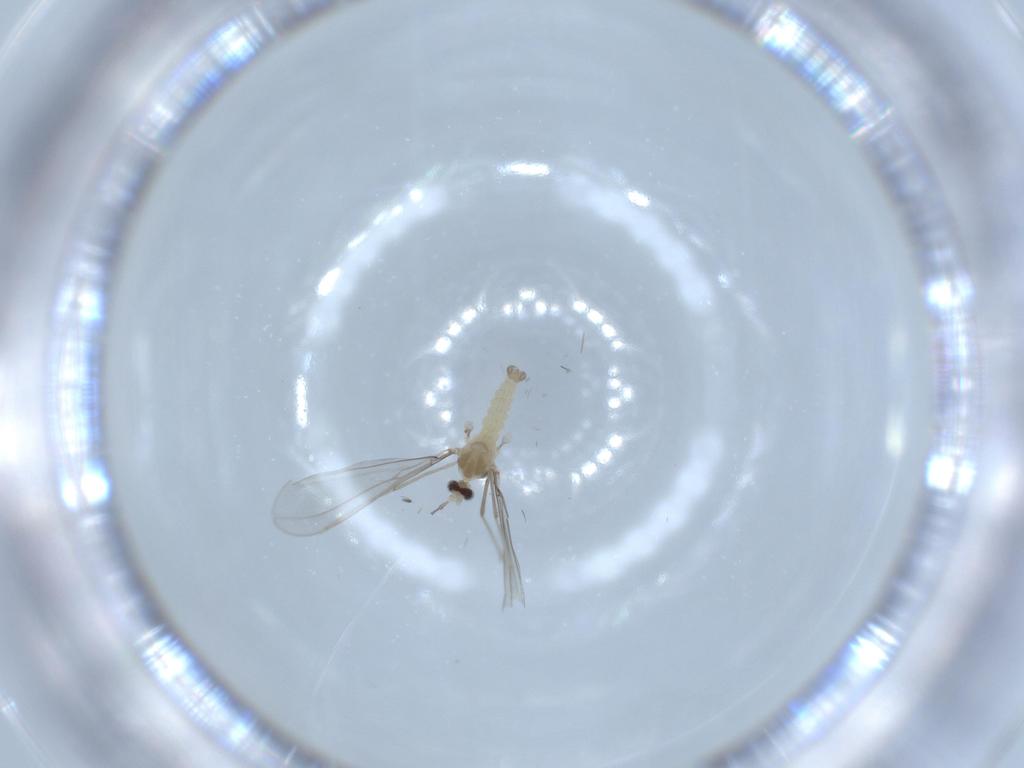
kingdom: Animalia
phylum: Arthropoda
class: Insecta
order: Diptera
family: Cecidomyiidae
